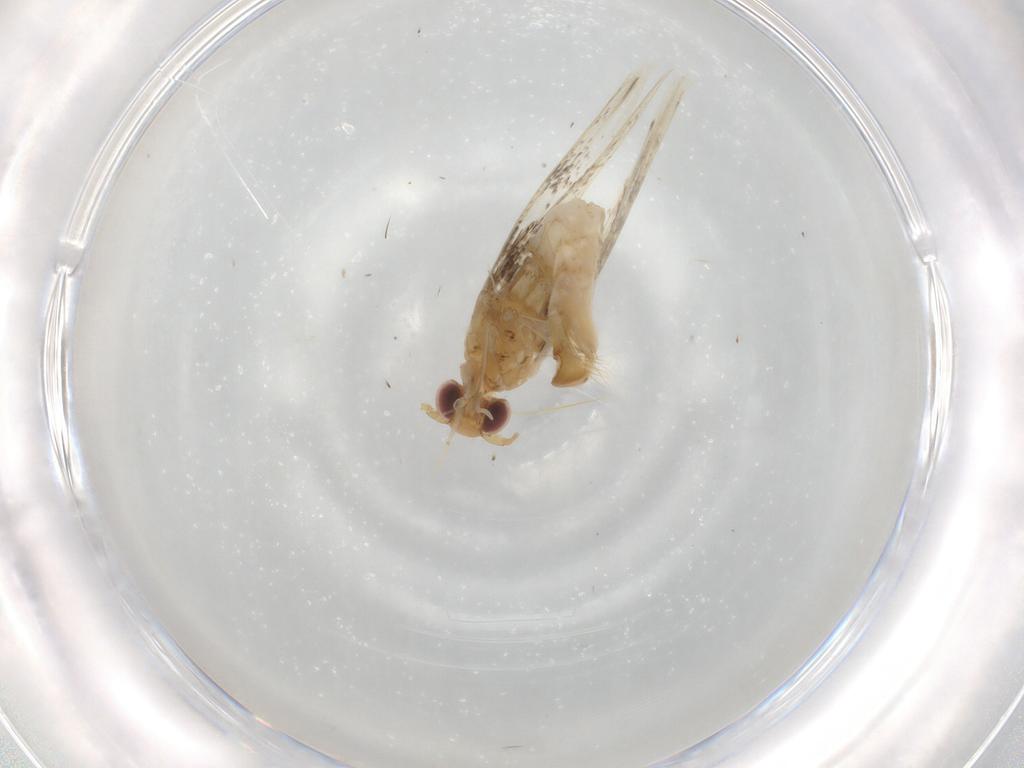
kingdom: Animalia
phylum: Arthropoda
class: Insecta
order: Lepidoptera
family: Gracillariidae
